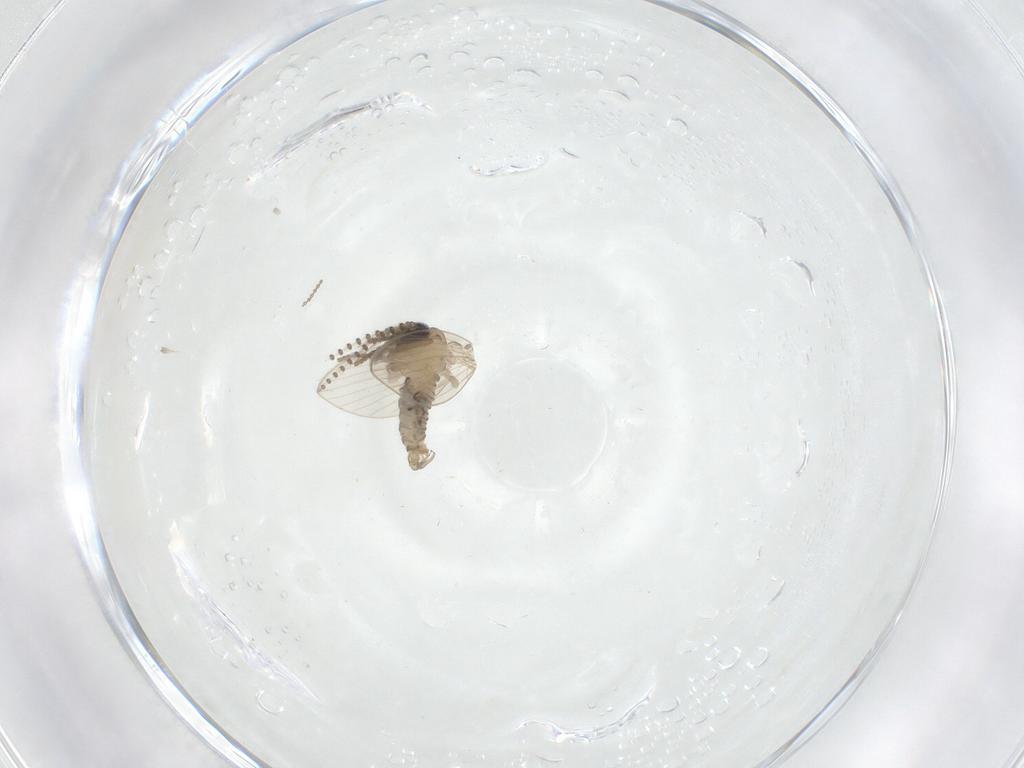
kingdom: Animalia
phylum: Arthropoda
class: Insecta
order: Diptera
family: Psychodidae
